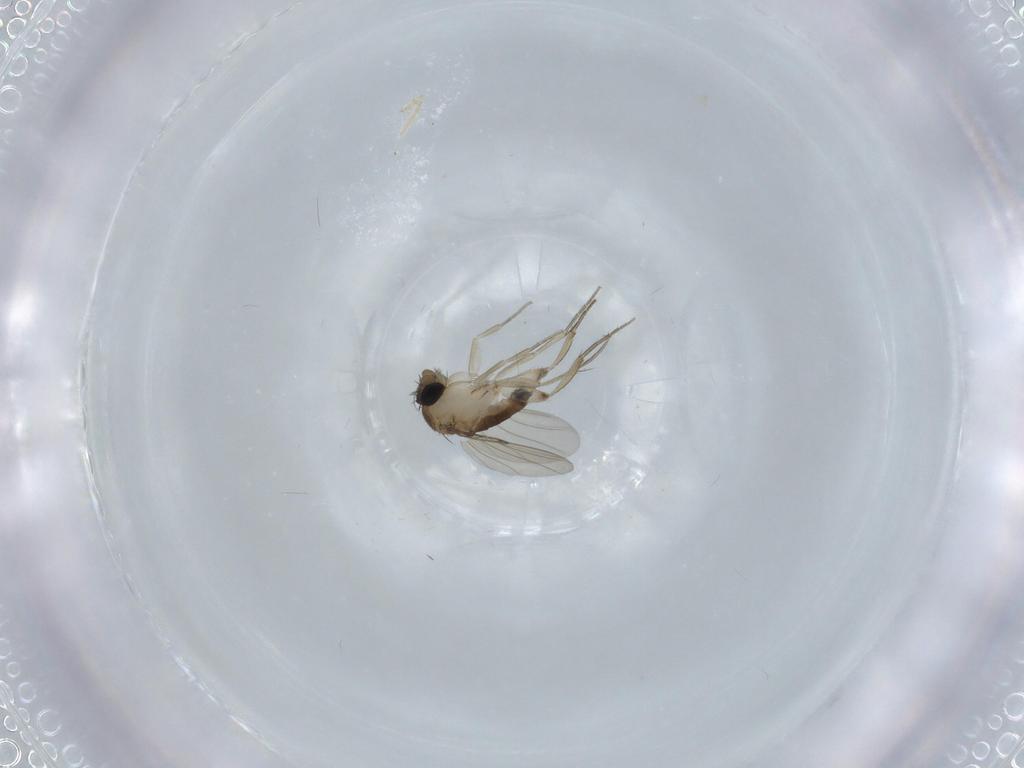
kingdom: Animalia
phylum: Arthropoda
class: Insecta
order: Diptera
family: Phoridae
